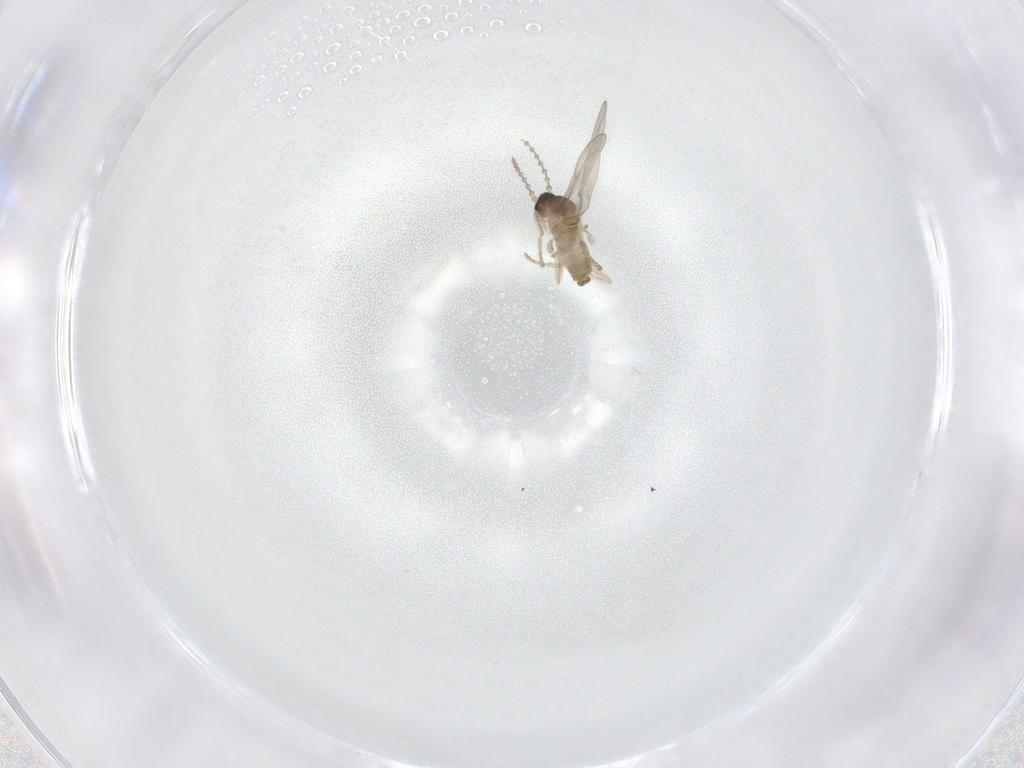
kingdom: Animalia
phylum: Arthropoda
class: Insecta
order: Diptera
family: Cecidomyiidae
